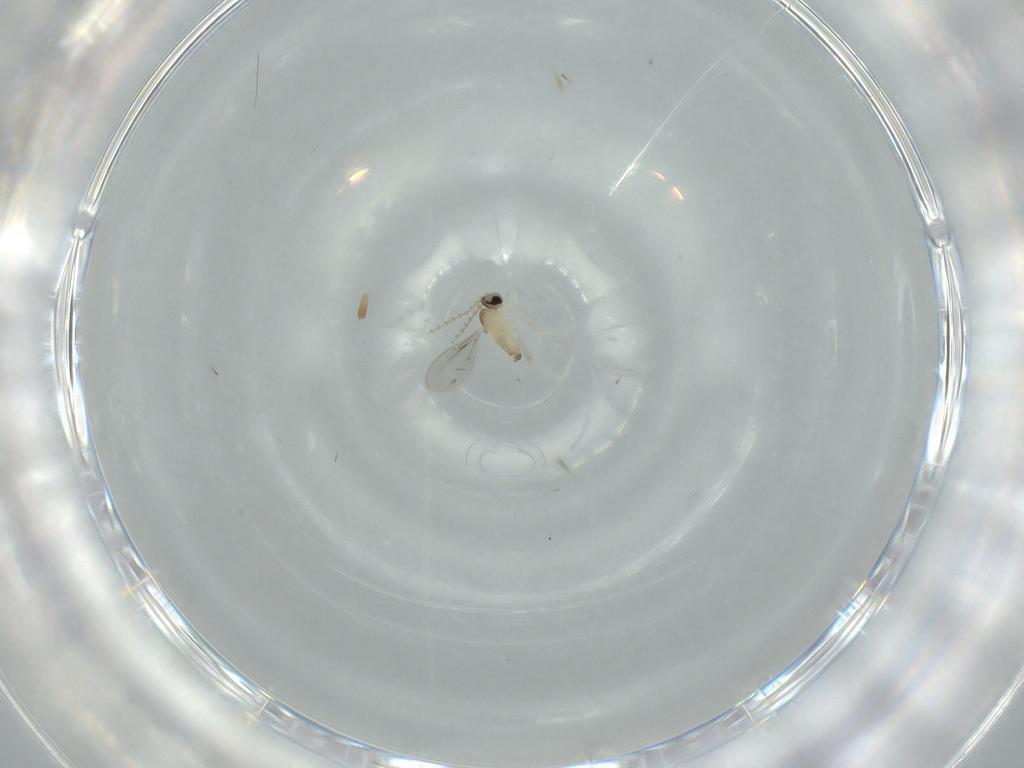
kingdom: Animalia
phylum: Arthropoda
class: Insecta
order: Diptera
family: Cecidomyiidae
